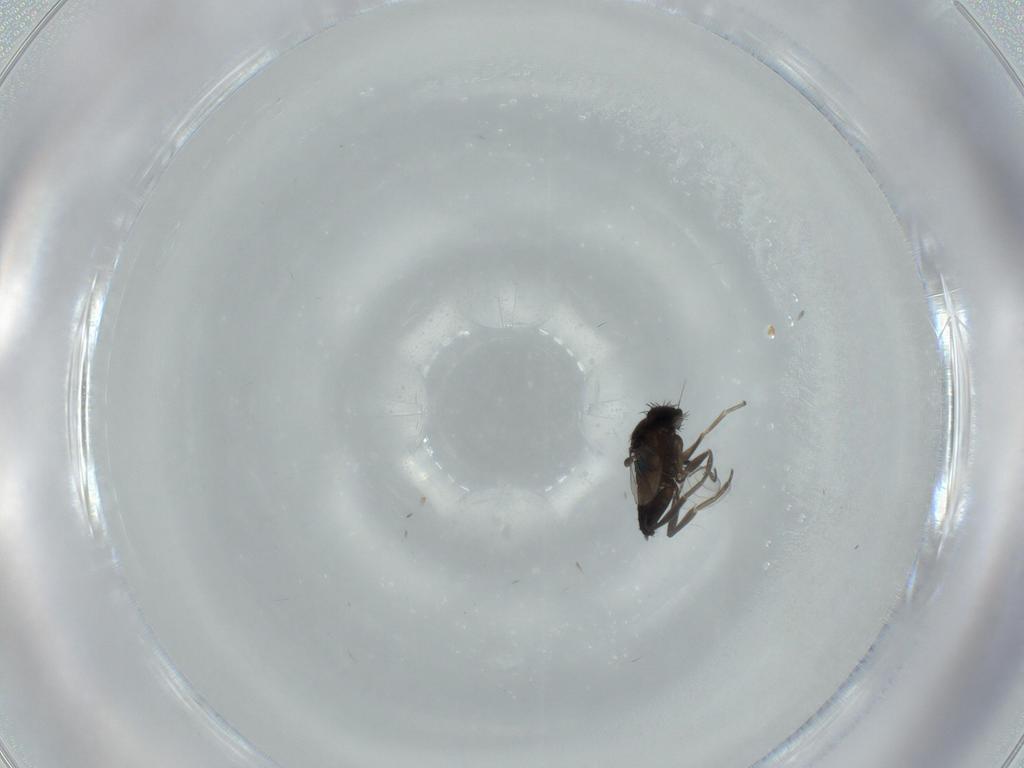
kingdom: Animalia
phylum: Arthropoda
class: Insecta
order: Diptera
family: Phoridae
